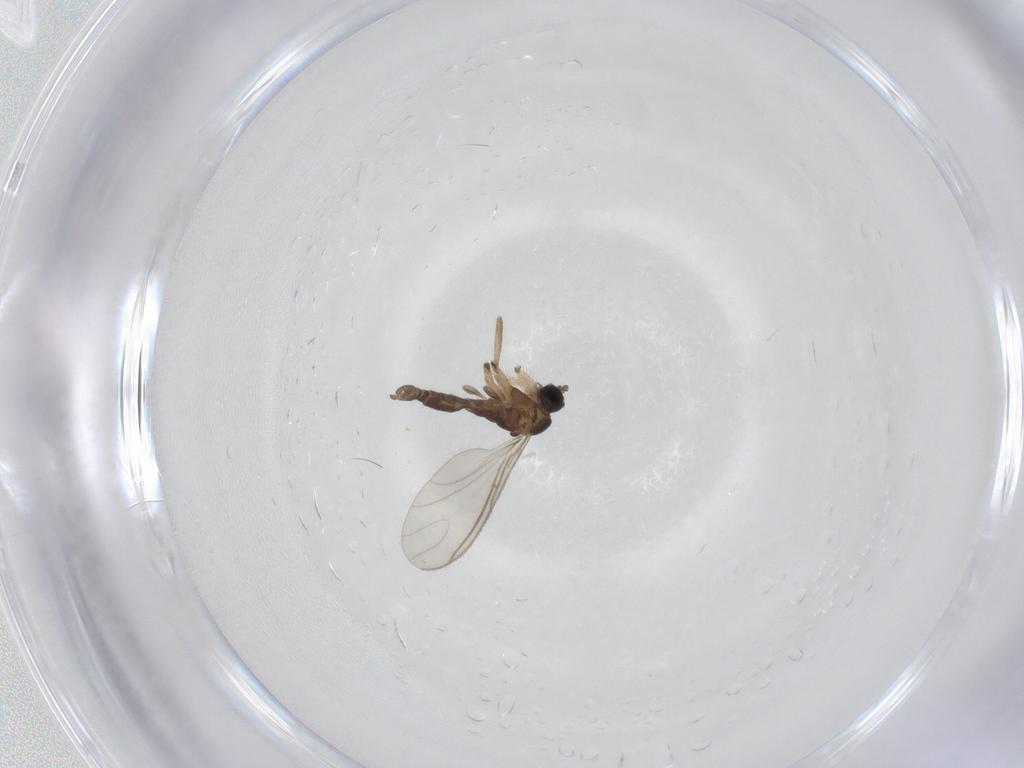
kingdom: Animalia
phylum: Arthropoda
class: Insecta
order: Diptera
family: Sciaridae
